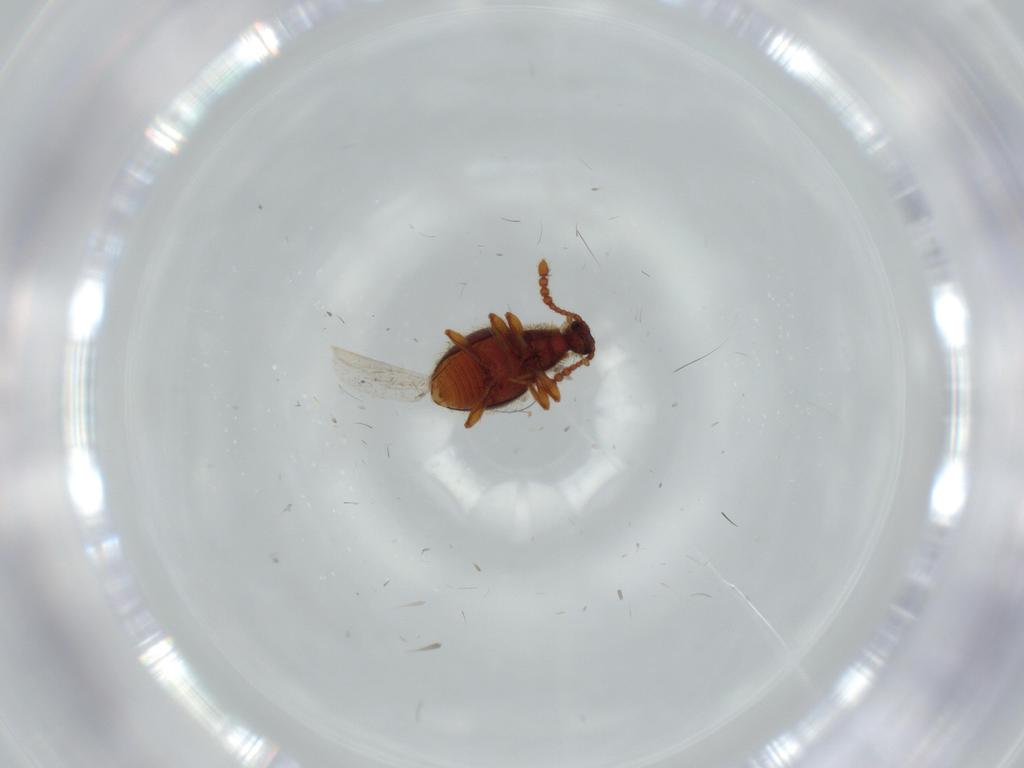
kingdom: Animalia
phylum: Arthropoda
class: Insecta
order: Coleoptera
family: Staphylinidae
